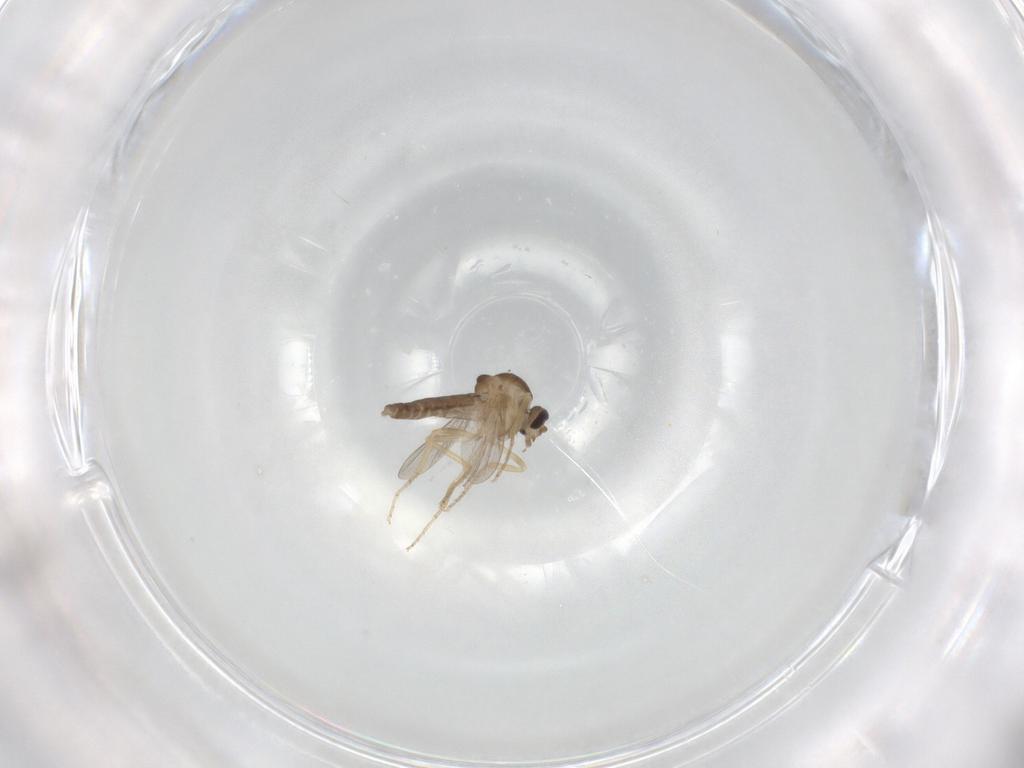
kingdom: Animalia
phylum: Arthropoda
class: Insecta
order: Diptera
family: Ceratopogonidae
